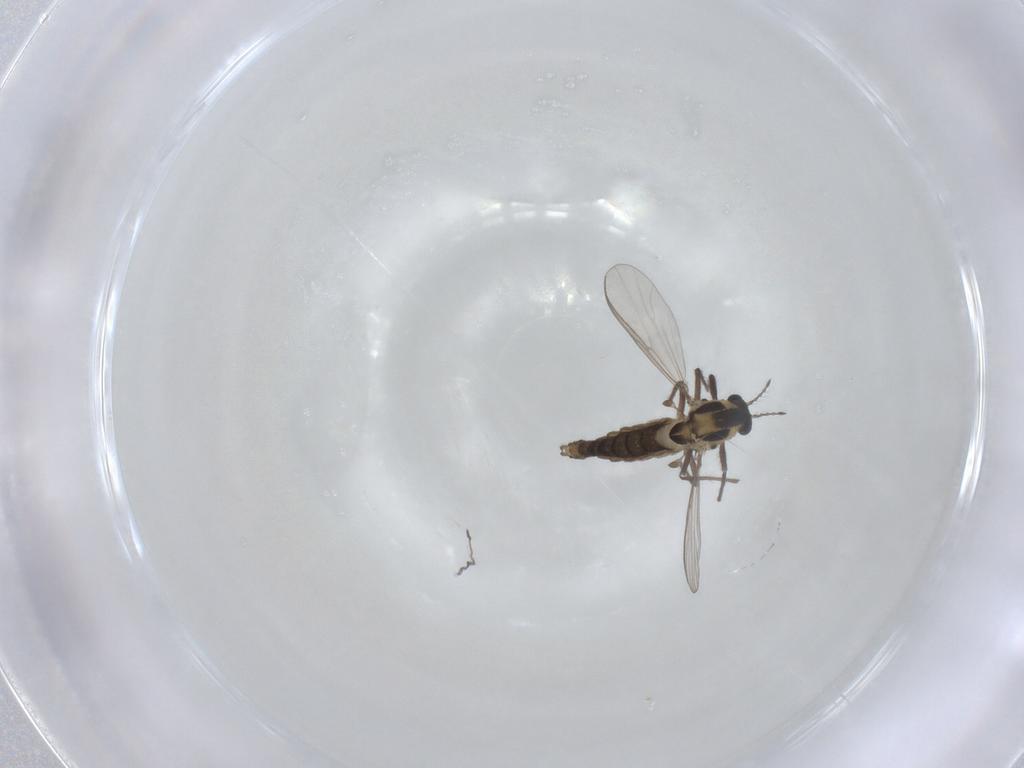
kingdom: Animalia
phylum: Arthropoda
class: Insecta
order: Diptera
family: Chironomidae
